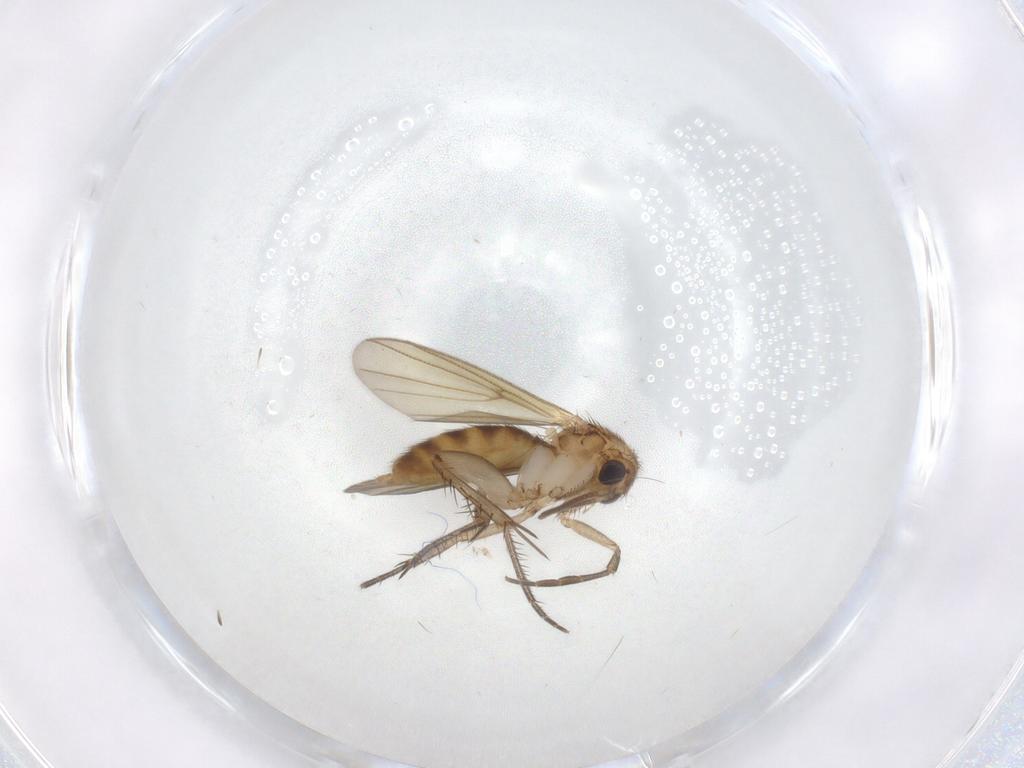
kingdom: Animalia
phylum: Arthropoda
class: Insecta
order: Diptera
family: Mycetophilidae
